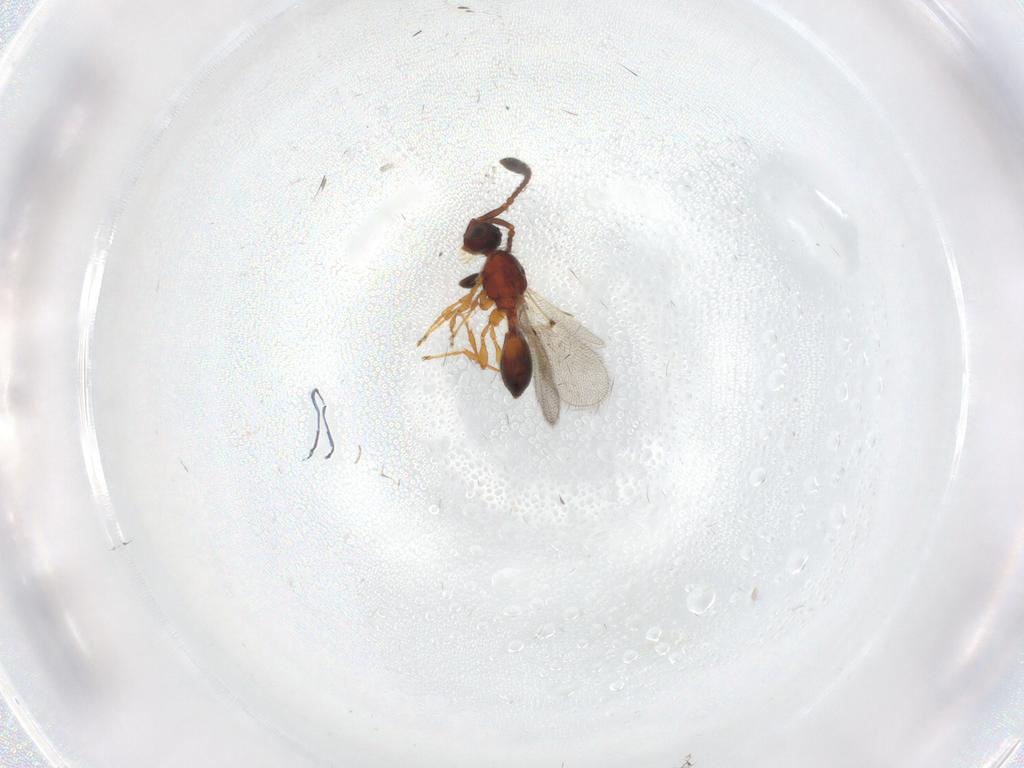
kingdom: Animalia
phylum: Arthropoda
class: Insecta
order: Hymenoptera
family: Diapriidae
